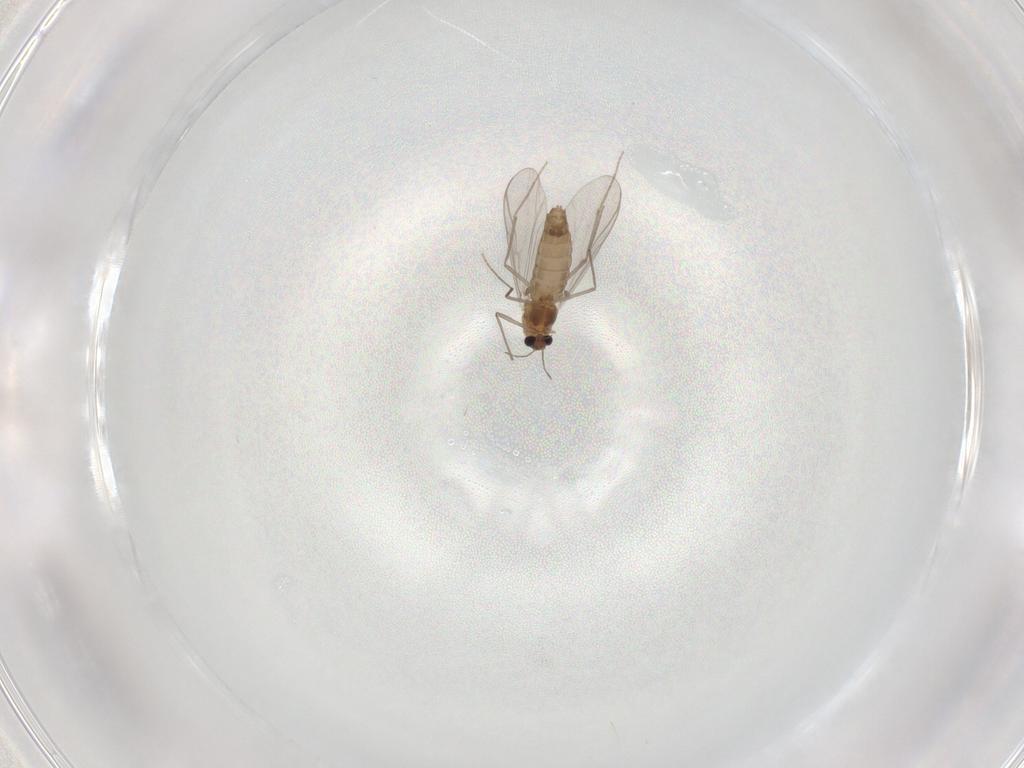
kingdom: Animalia
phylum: Arthropoda
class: Insecta
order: Diptera
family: Chironomidae
